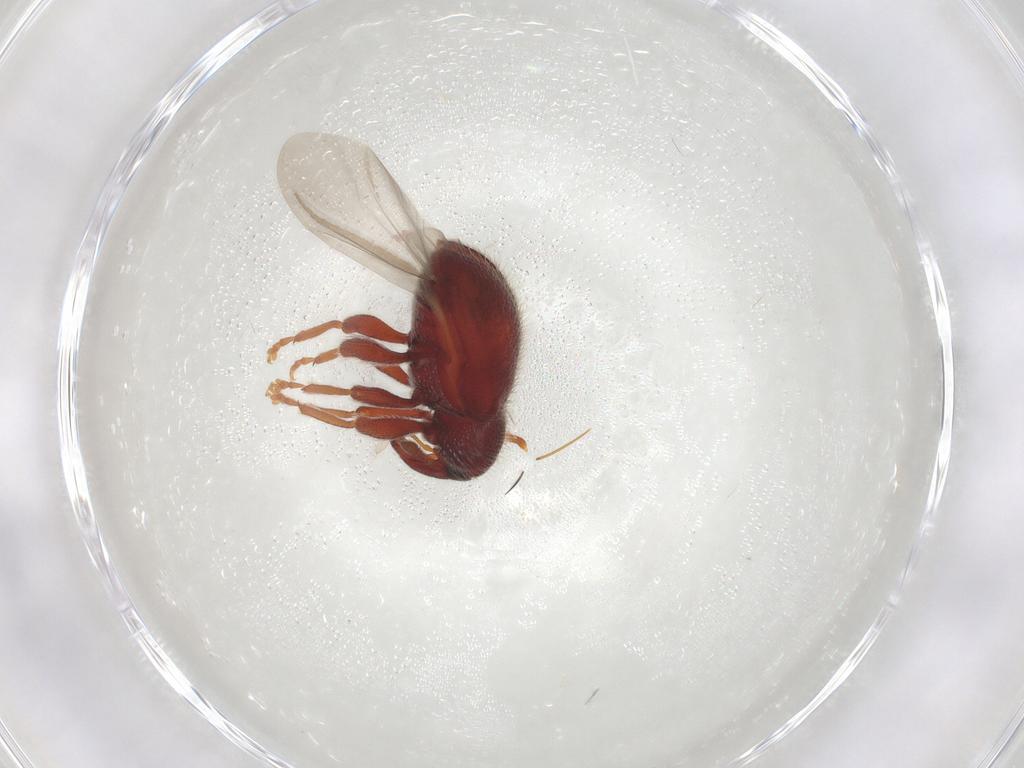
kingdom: Animalia
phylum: Arthropoda
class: Insecta
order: Coleoptera
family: Curculionidae
